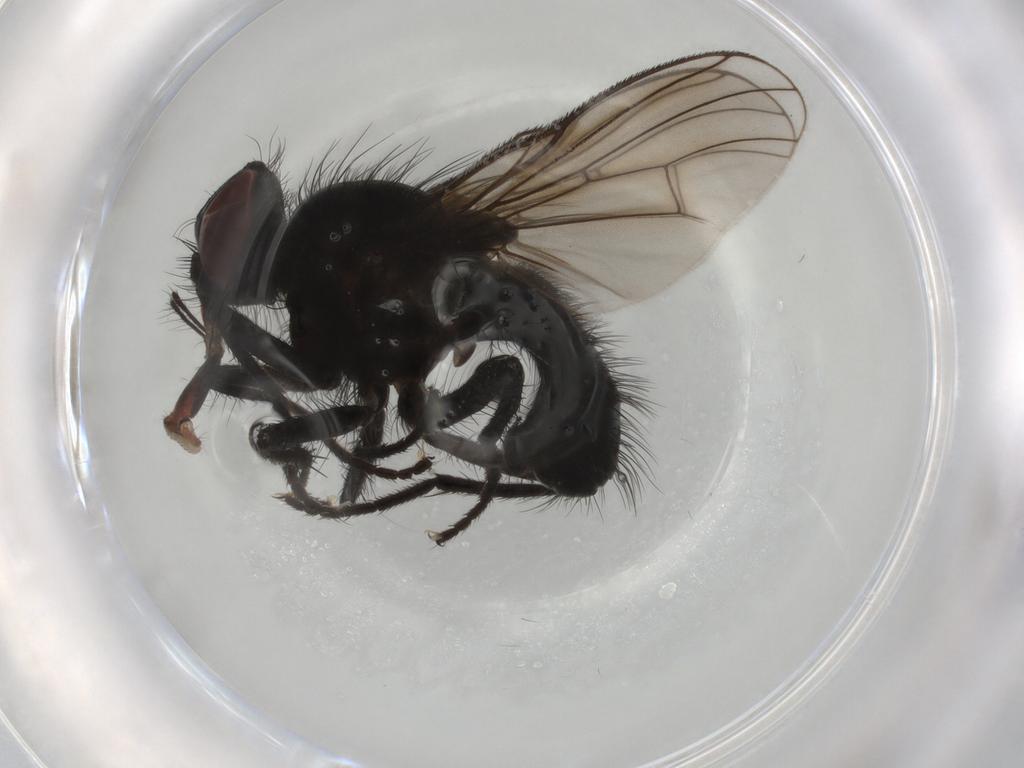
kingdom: Animalia
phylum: Arthropoda
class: Insecta
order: Diptera
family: Muscidae
